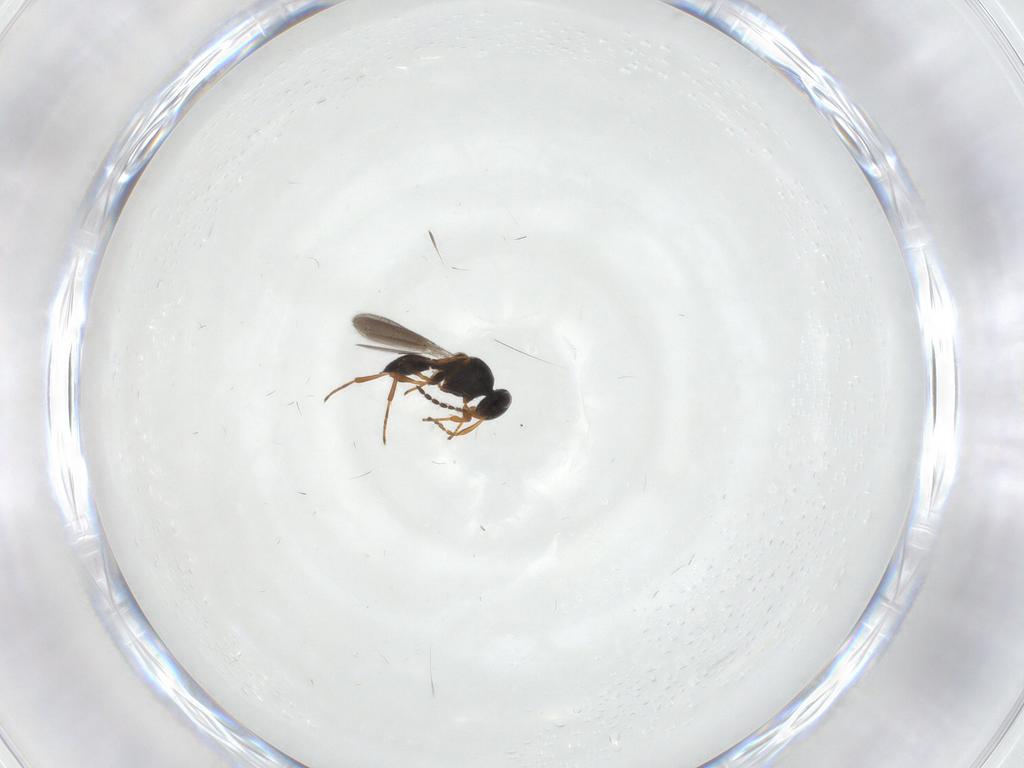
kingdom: Animalia
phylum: Arthropoda
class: Insecta
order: Hymenoptera
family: Platygastridae
